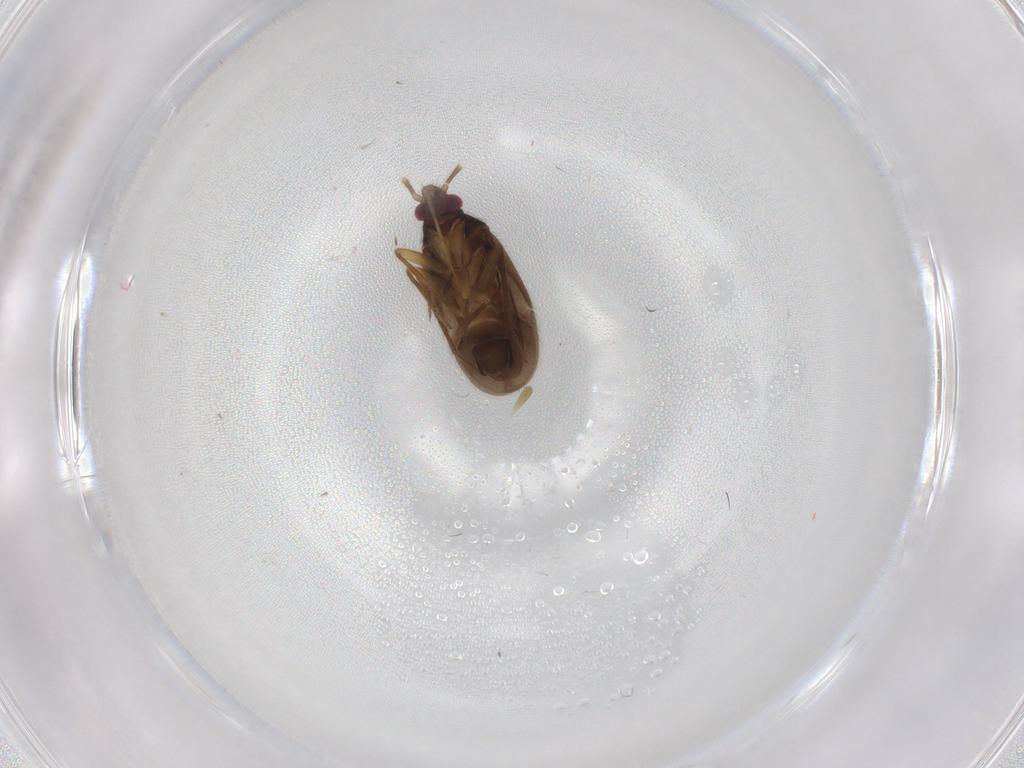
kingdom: Animalia
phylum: Arthropoda
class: Insecta
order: Hemiptera
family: Ceratocombidae
